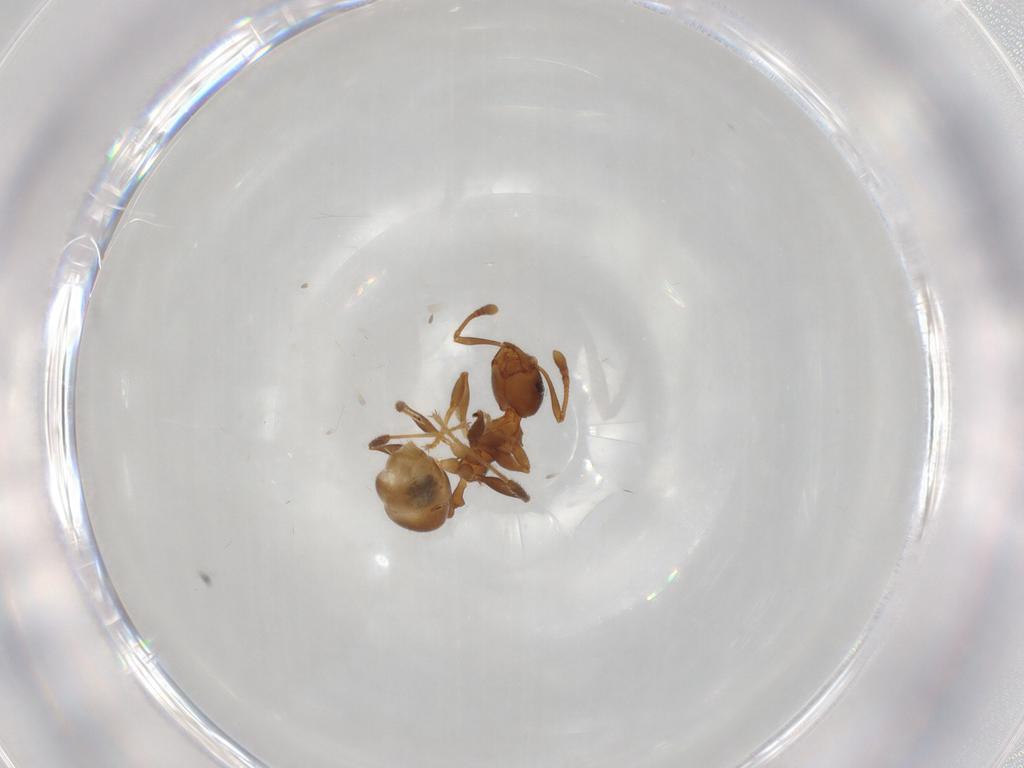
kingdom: Animalia
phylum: Arthropoda
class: Insecta
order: Hymenoptera
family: Formicidae
